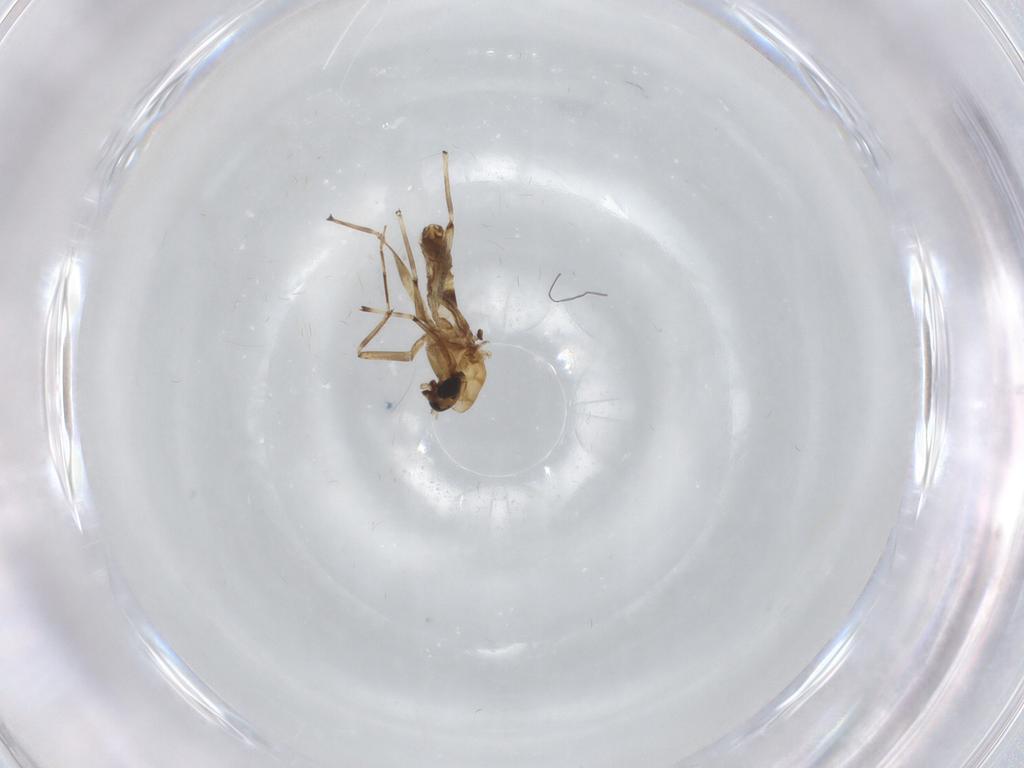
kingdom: Animalia
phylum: Arthropoda
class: Insecta
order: Diptera
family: Chironomidae
